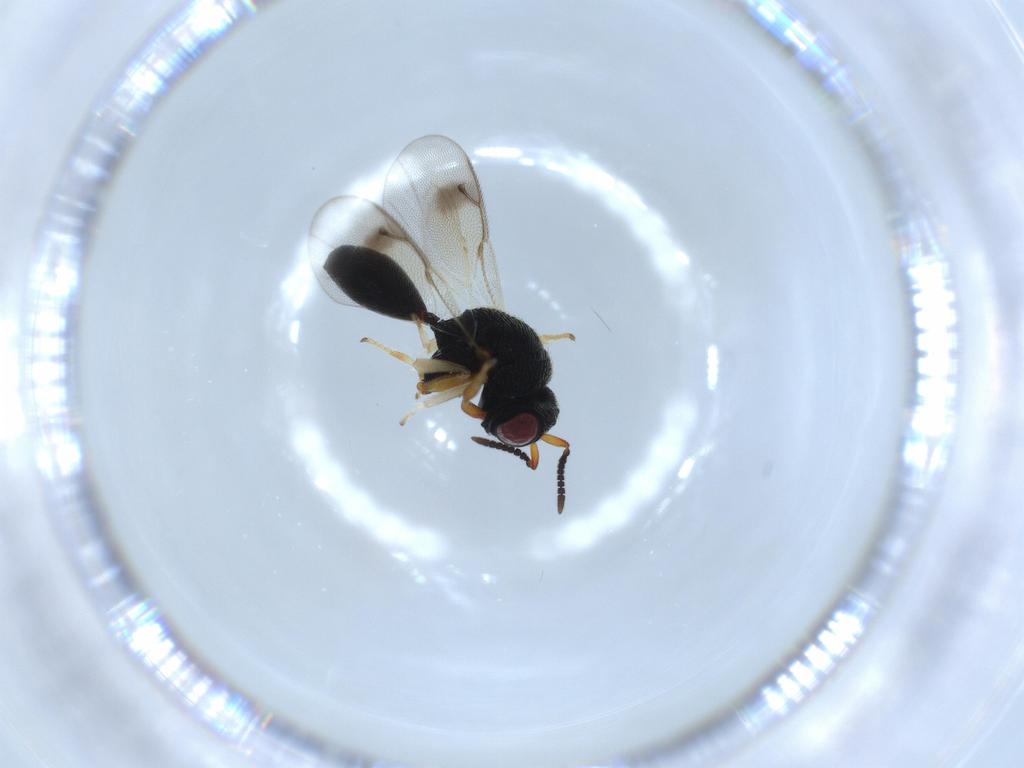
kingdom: Animalia
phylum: Arthropoda
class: Insecta
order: Hymenoptera
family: Eurytomidae
